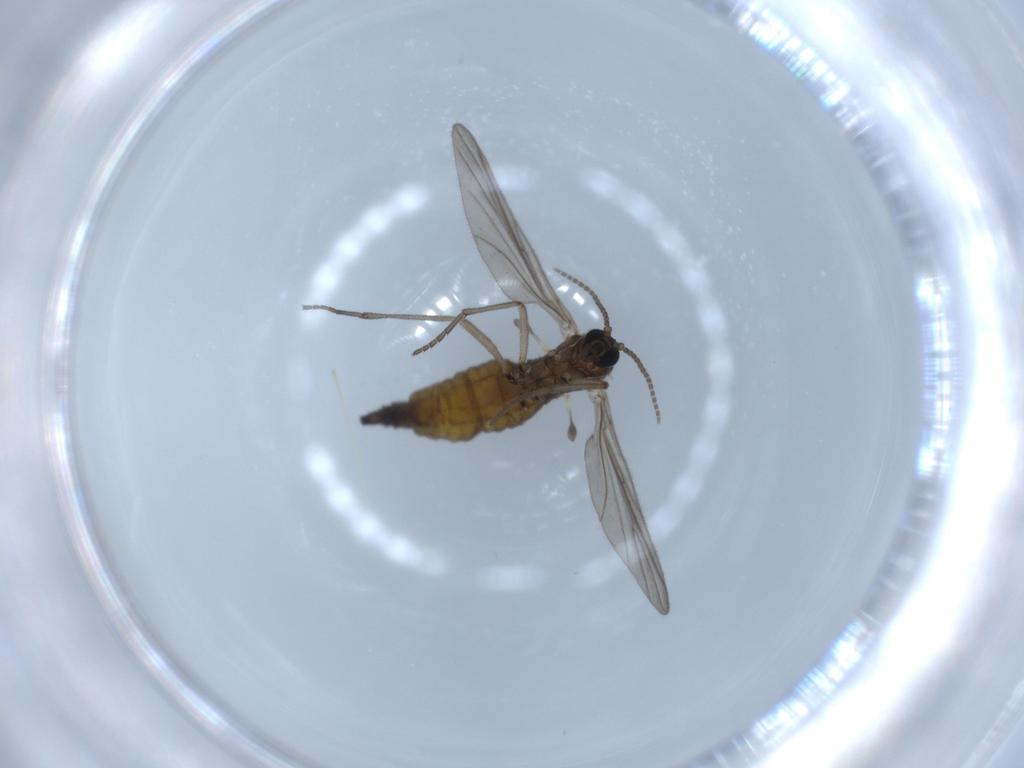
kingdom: Animalia
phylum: Arthropoda
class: Insecta
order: Diptera
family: Chironomidae
